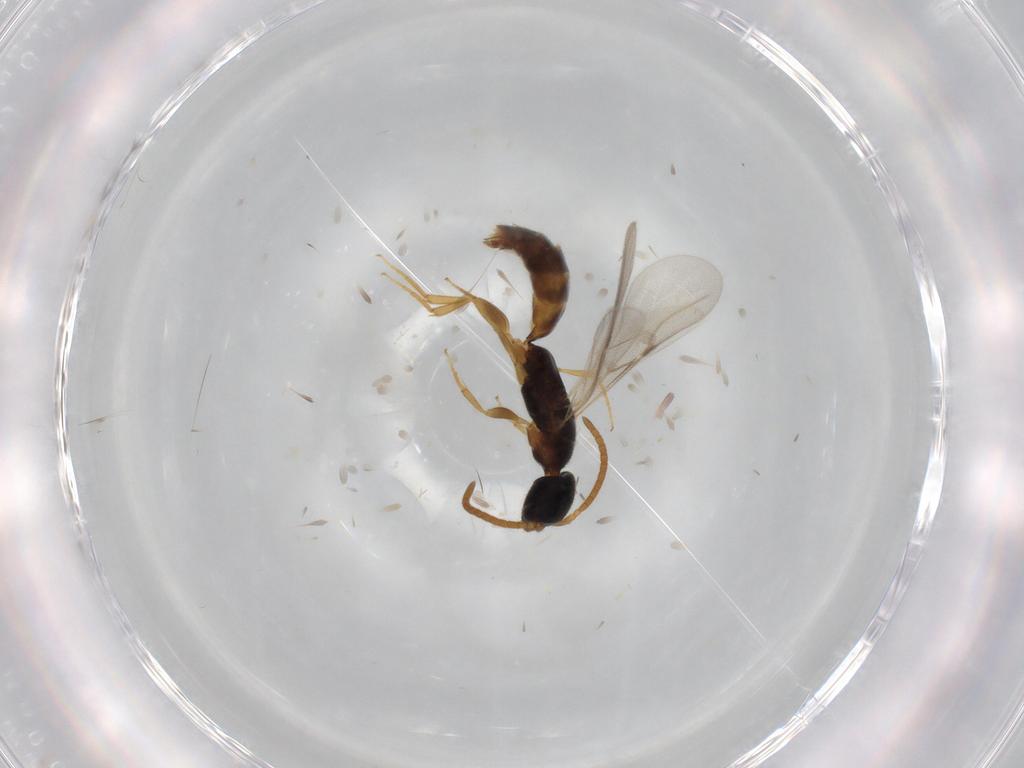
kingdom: Animalia
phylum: Arthropoda
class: Insecta
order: Hymenoptera
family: Bethylidae
